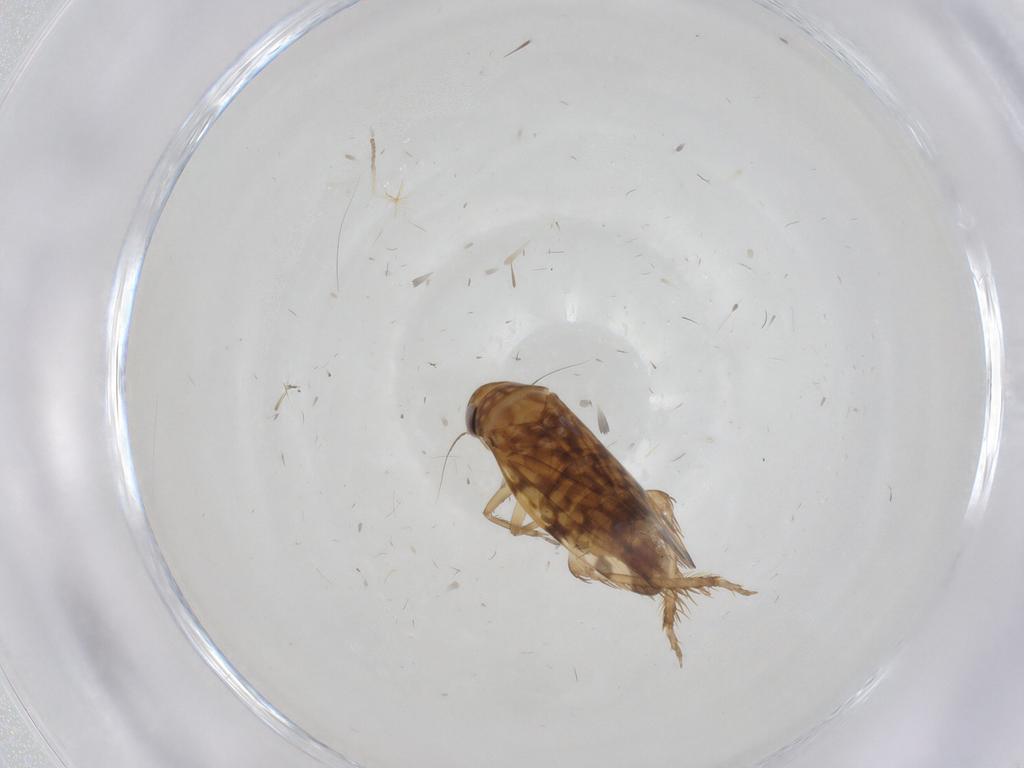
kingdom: Animalia
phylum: Arthropoda
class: Insecta
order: Hemiptera
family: Cicadellidae
